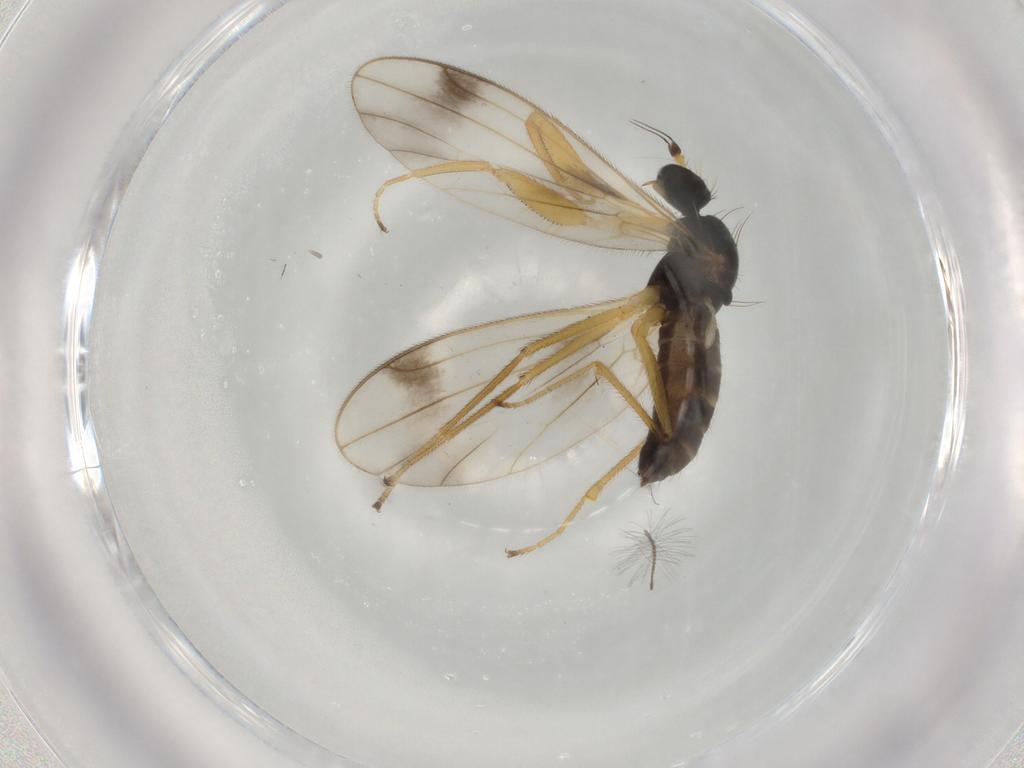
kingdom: Animalia
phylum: Arthropoda
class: Insecta
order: Diptera
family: Empididae
